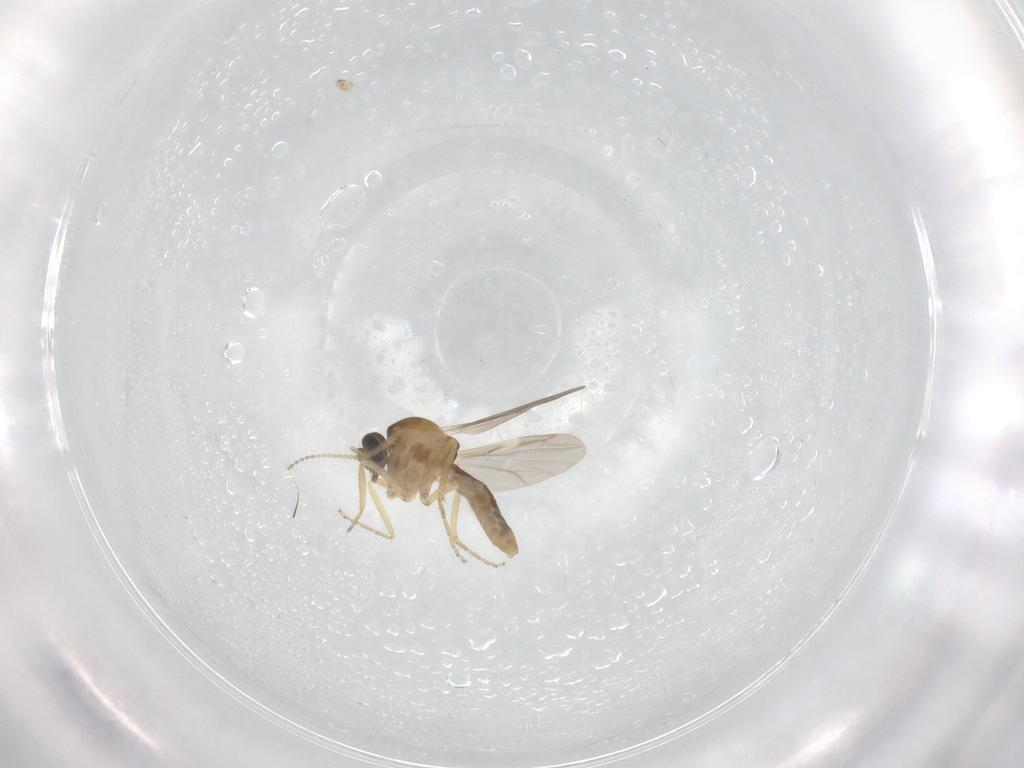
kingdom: Animalia
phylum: Arthropoda
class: Insecta
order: Diptera
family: Ceratopogonidae
